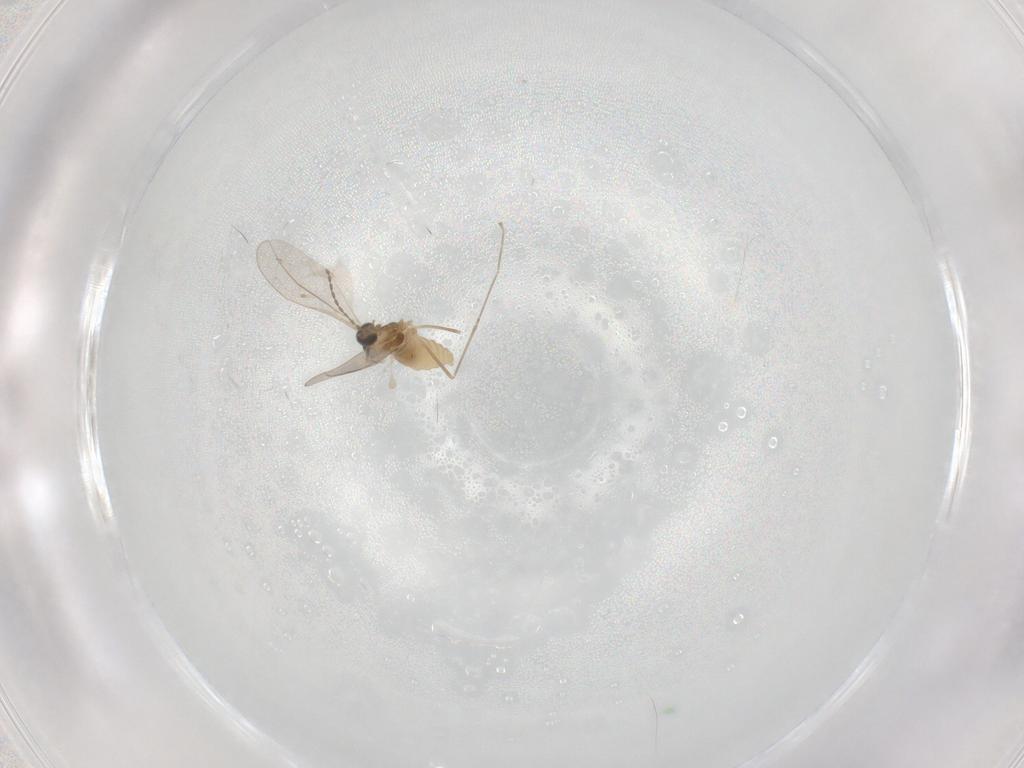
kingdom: Animalia
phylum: Arthropoda
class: Insecta
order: Diptera
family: Cecidomyiidae
